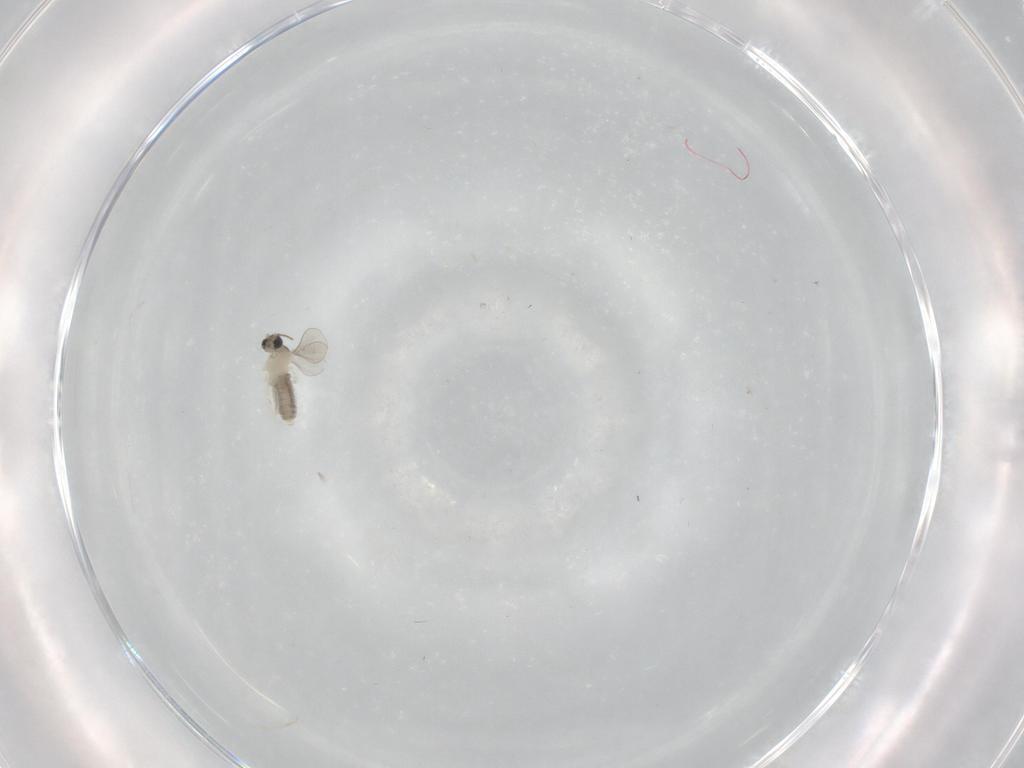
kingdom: Animalia
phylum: Arthropoda
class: Insecta
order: Diptera
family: Cecidomyiidae
